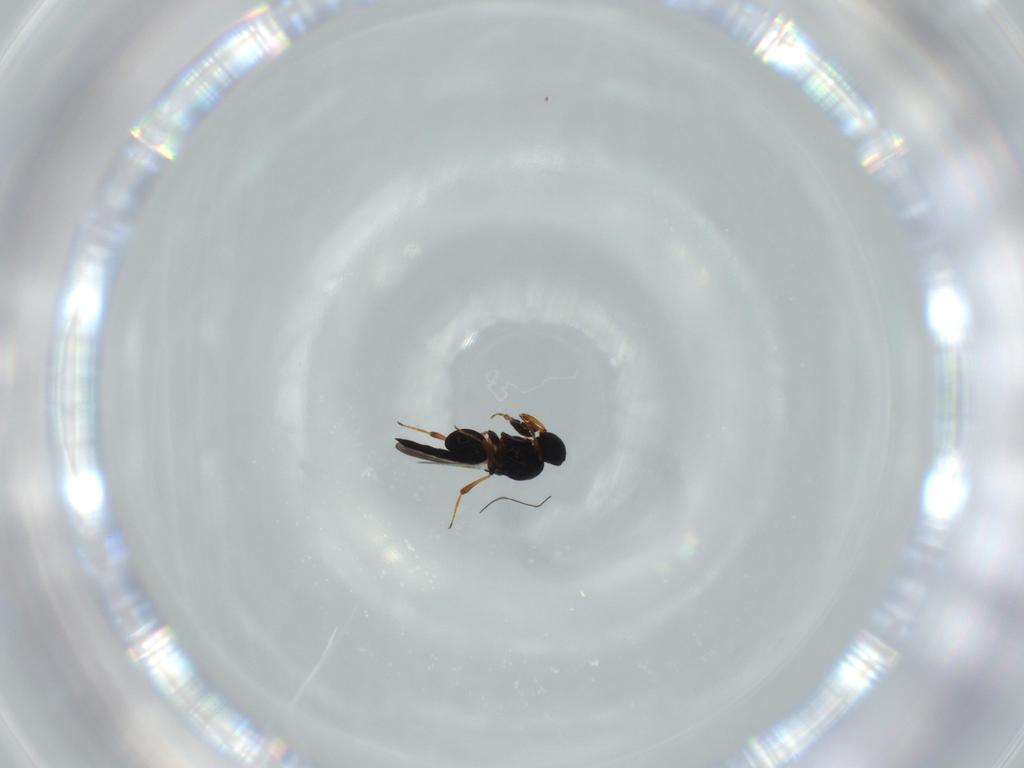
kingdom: Animalia
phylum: Arthropoda
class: Insecta
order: Hymenoptera
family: Platygastridae
